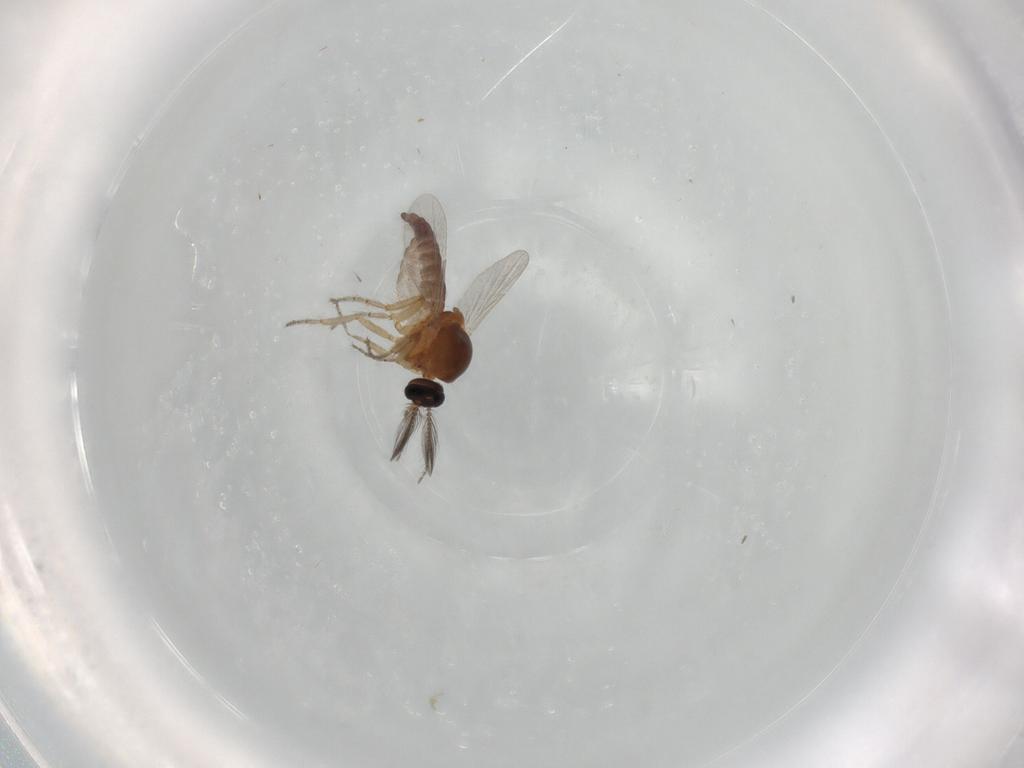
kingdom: Animalia
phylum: Arthropoda
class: Insecta
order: Diptera
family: Ceratopogonidae
